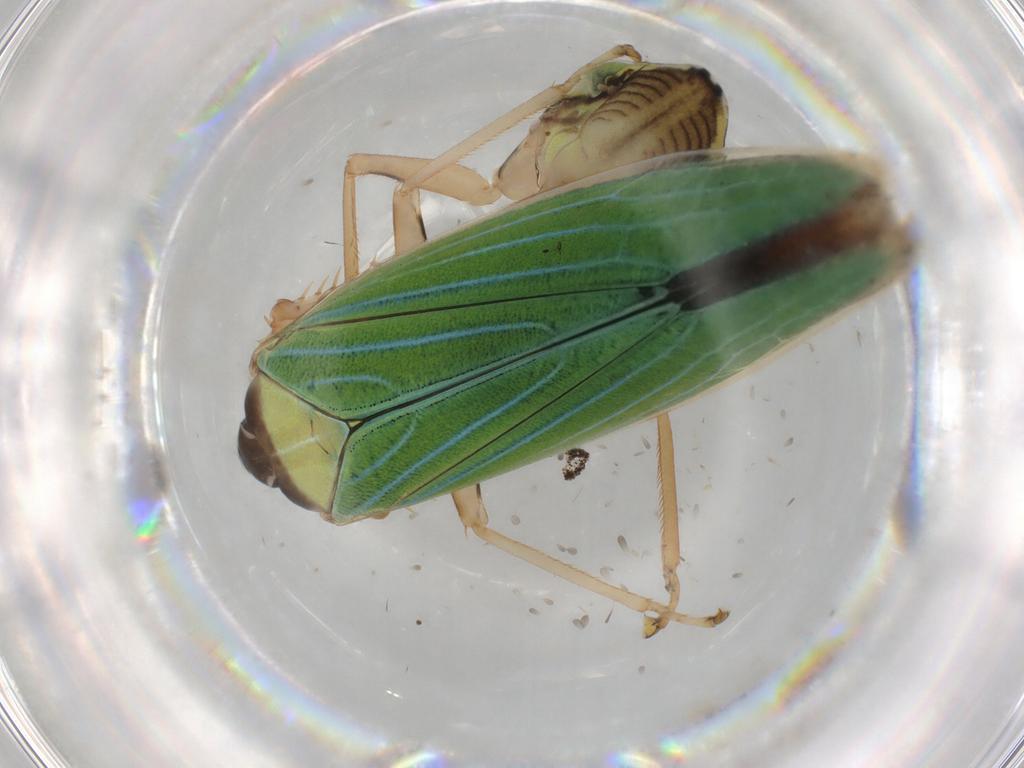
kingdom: Animalia
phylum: Arthropoda
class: Insecta
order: Hemiptera
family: Cicadellidae
